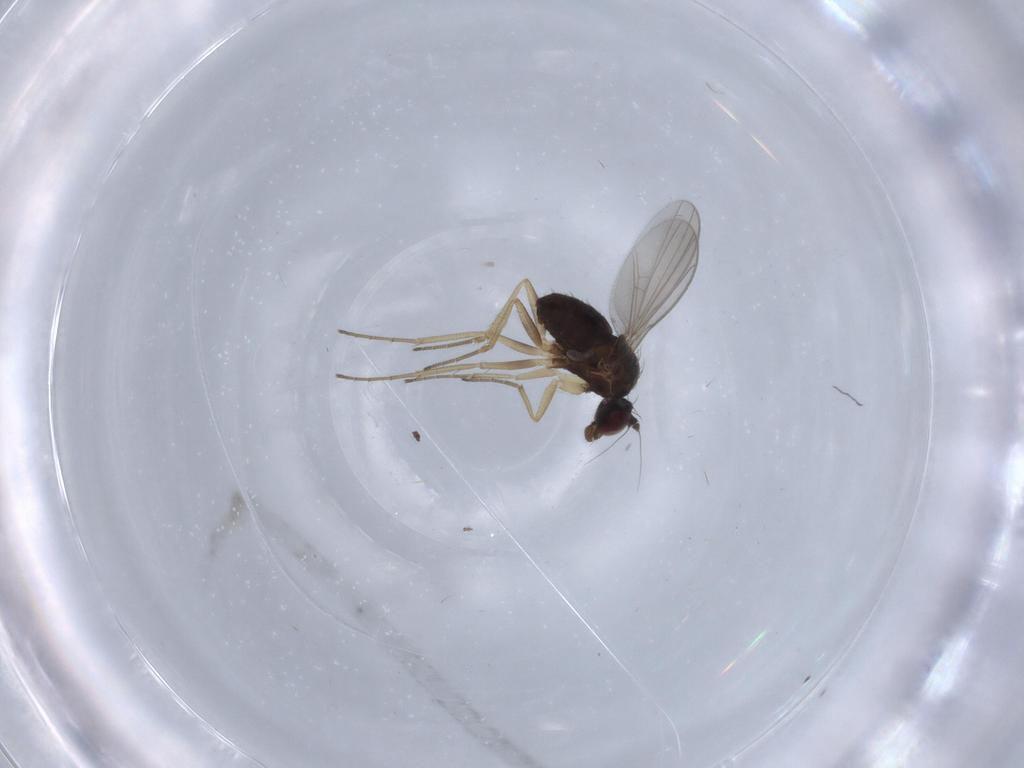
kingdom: Animalia
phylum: Arthropoda
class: Insecta
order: Diptera
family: Dolichopodidae
